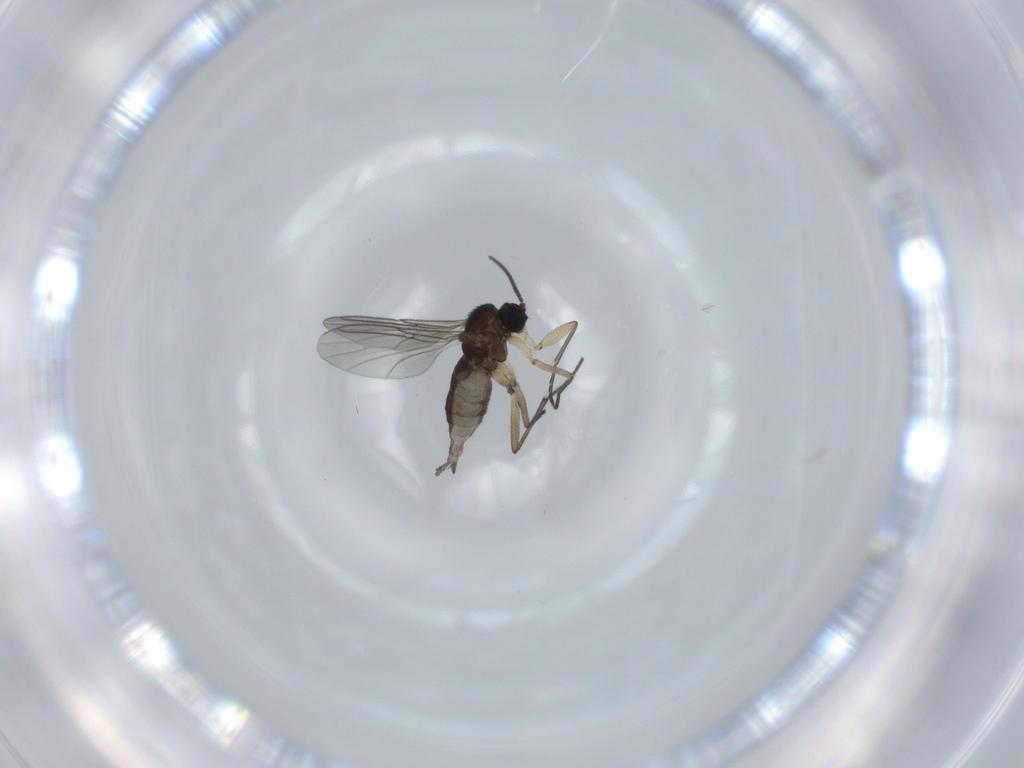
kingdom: Animalia
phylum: Arthropoda
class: Insecta
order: Diptera
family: Sciaridae
